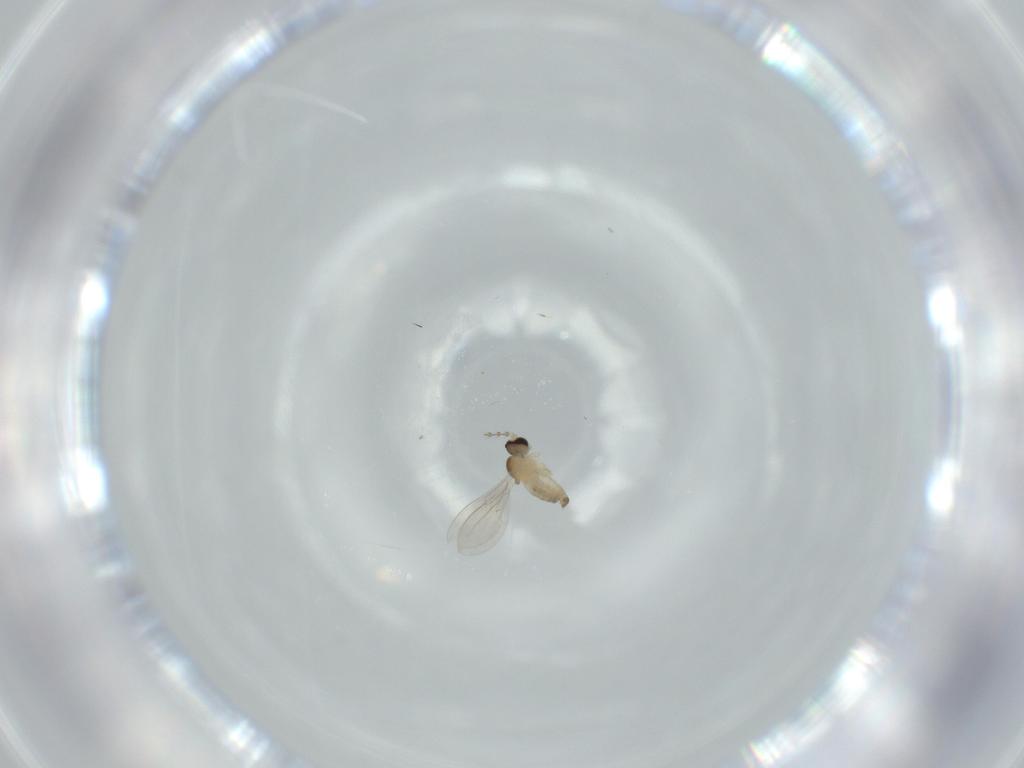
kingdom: Animalia
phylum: Arthropoda
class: Insecta
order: Diptera
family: Cecidomyiidae
